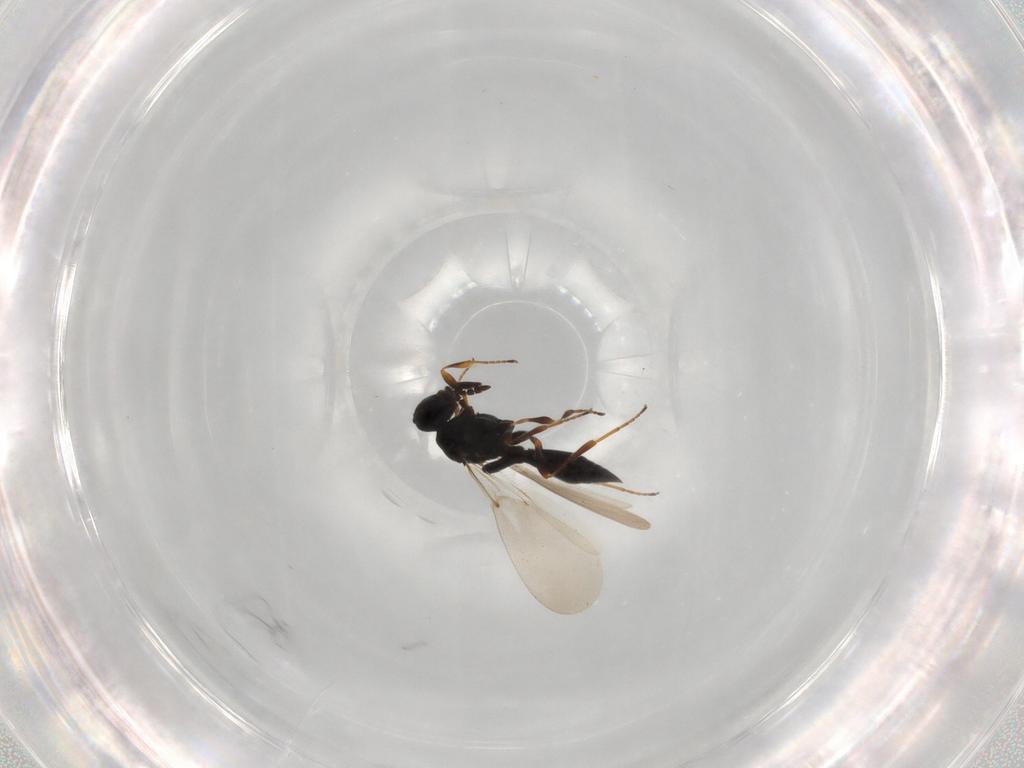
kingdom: Animalia
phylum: Arthropoda
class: Insecta
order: Hymenoptera
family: Platygastridae
